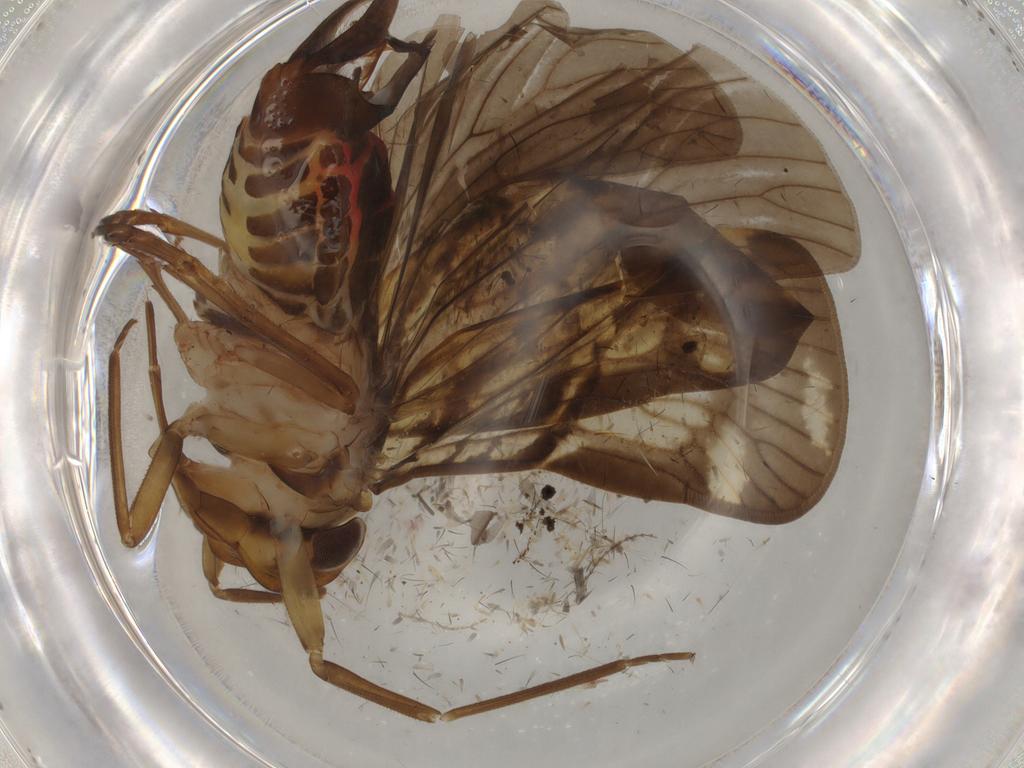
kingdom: Animalia
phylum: Arthropoda
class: Insecta
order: Hemiptera
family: Cixiidae
